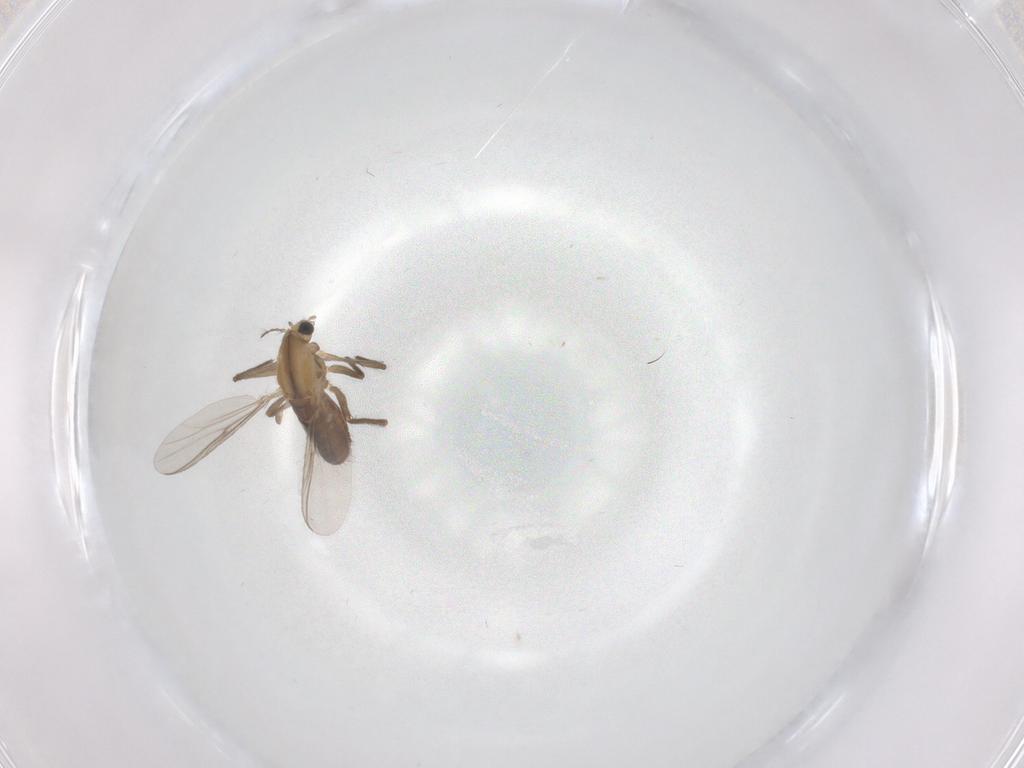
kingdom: Animalia
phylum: Arthropoda
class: Insecta
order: Diptera
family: Chironomidae
